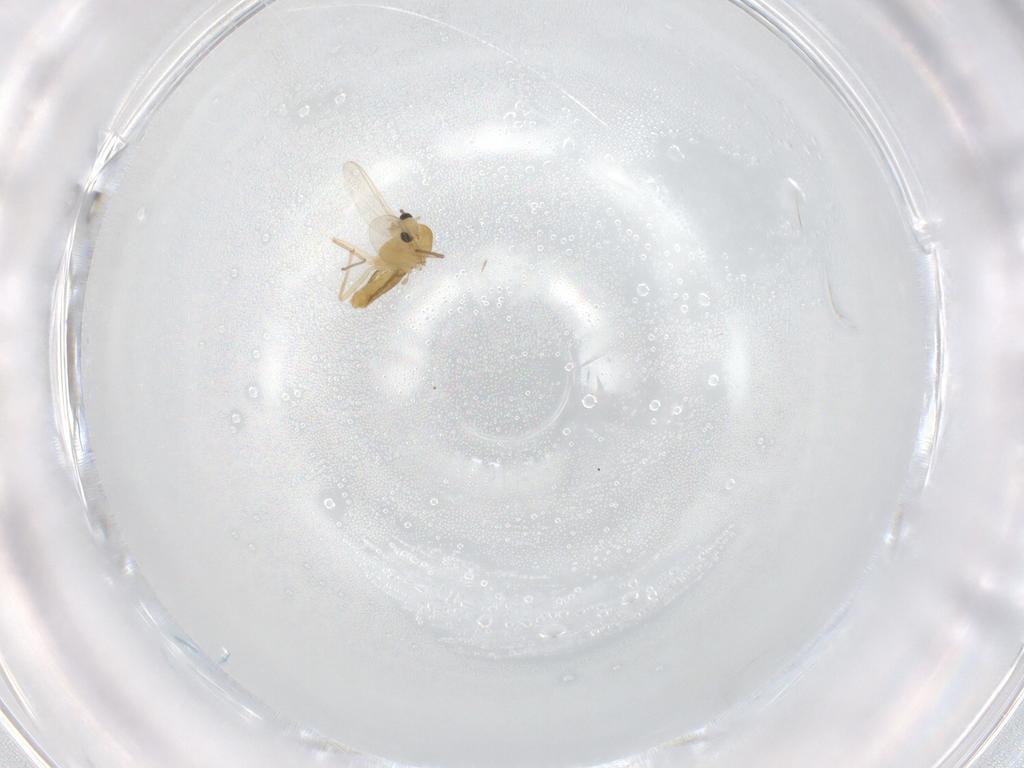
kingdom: Animalia
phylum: Arthropoda
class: Insecta
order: Diptera
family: Chironomidae
